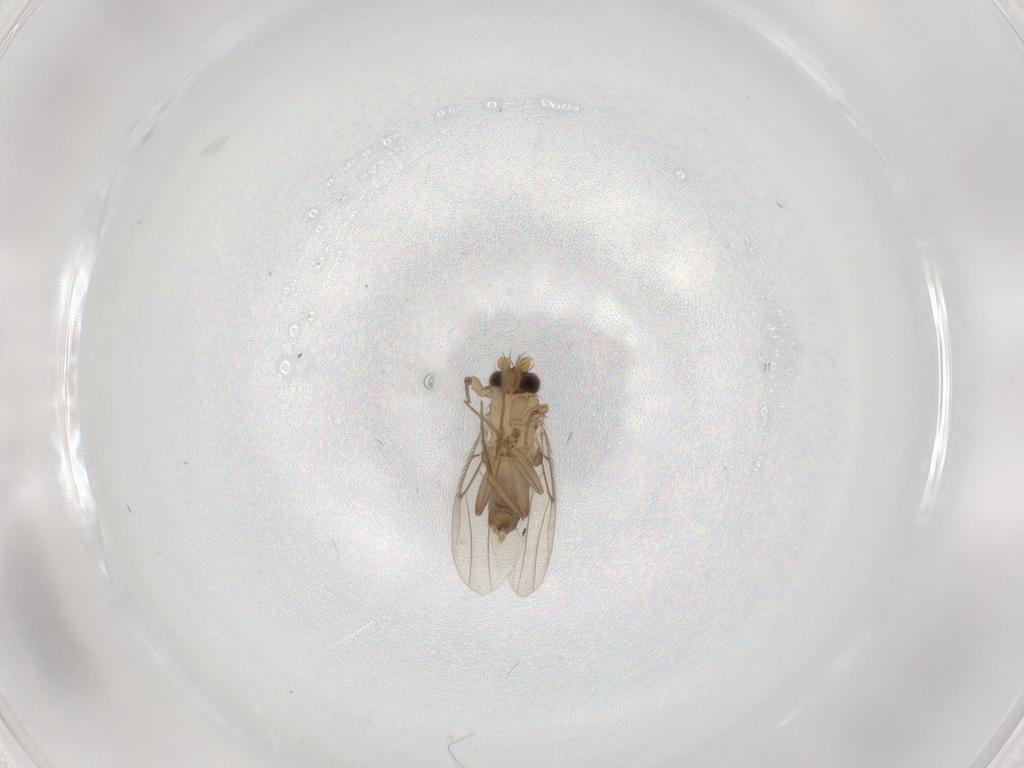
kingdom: Animalia
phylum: Arthropoda
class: Insecta
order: Diptera
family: Phoridae
